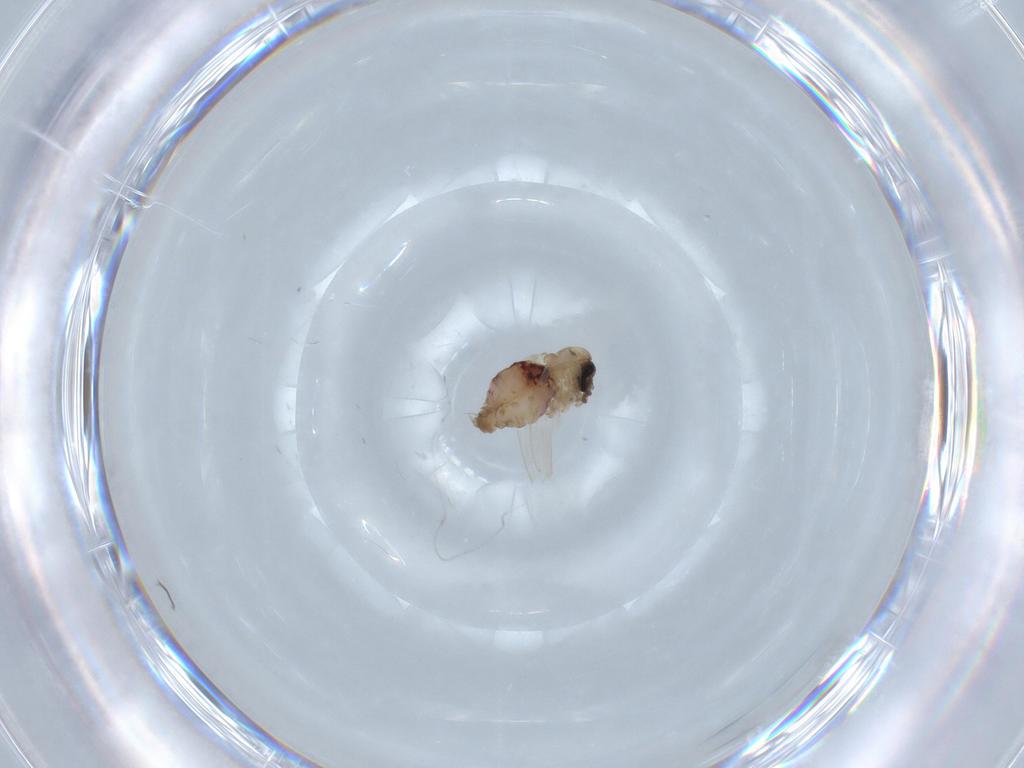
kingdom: Animalia
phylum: Arthropoda
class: Insecta
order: Diptera
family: Psychodidae
